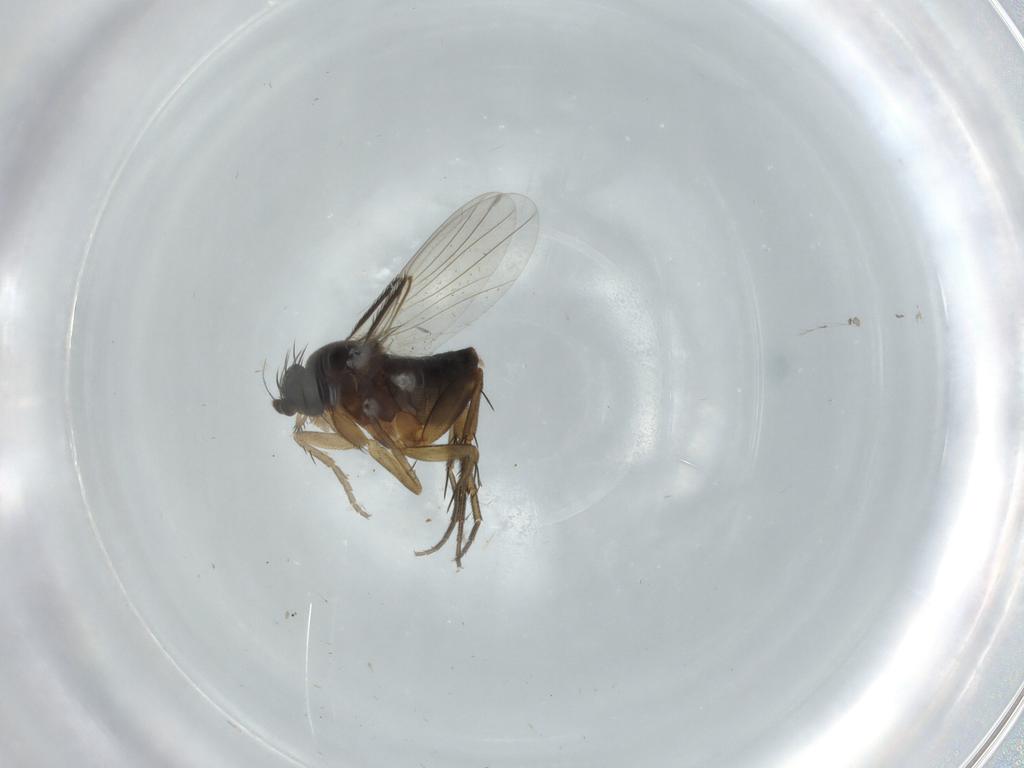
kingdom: Animalia
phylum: Arthropoda
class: Insecta
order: Diptera
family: Phoridae
